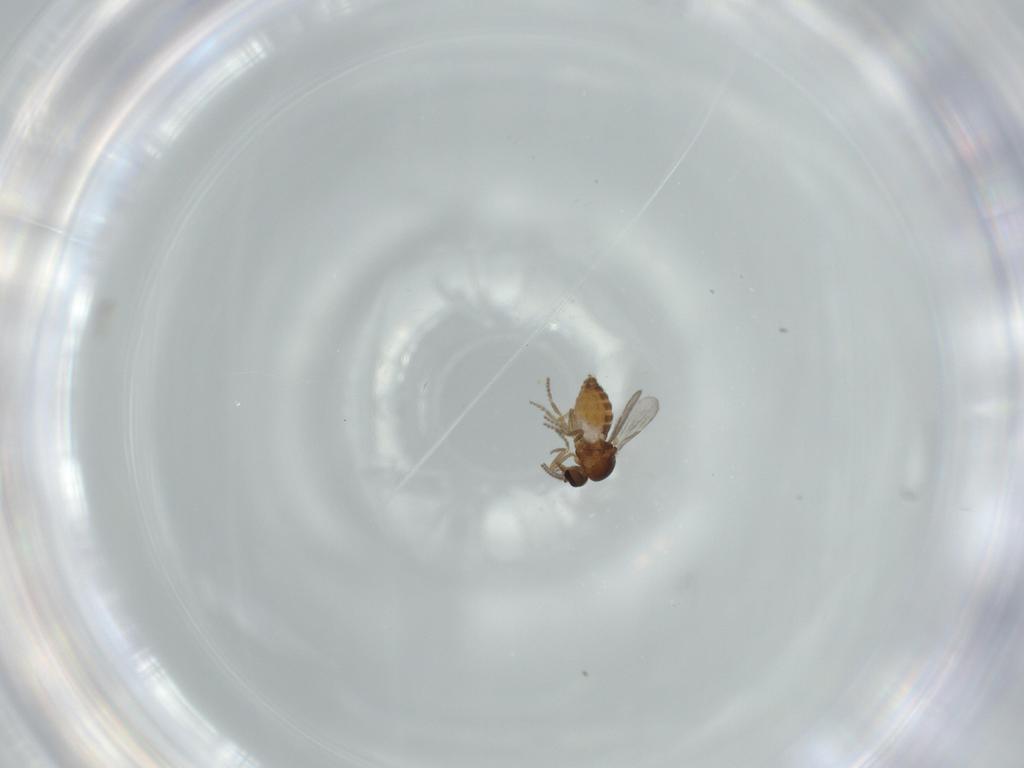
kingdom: Animalia
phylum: Arthropoda
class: Insecta
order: Diptera
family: Ceratopogonidae
